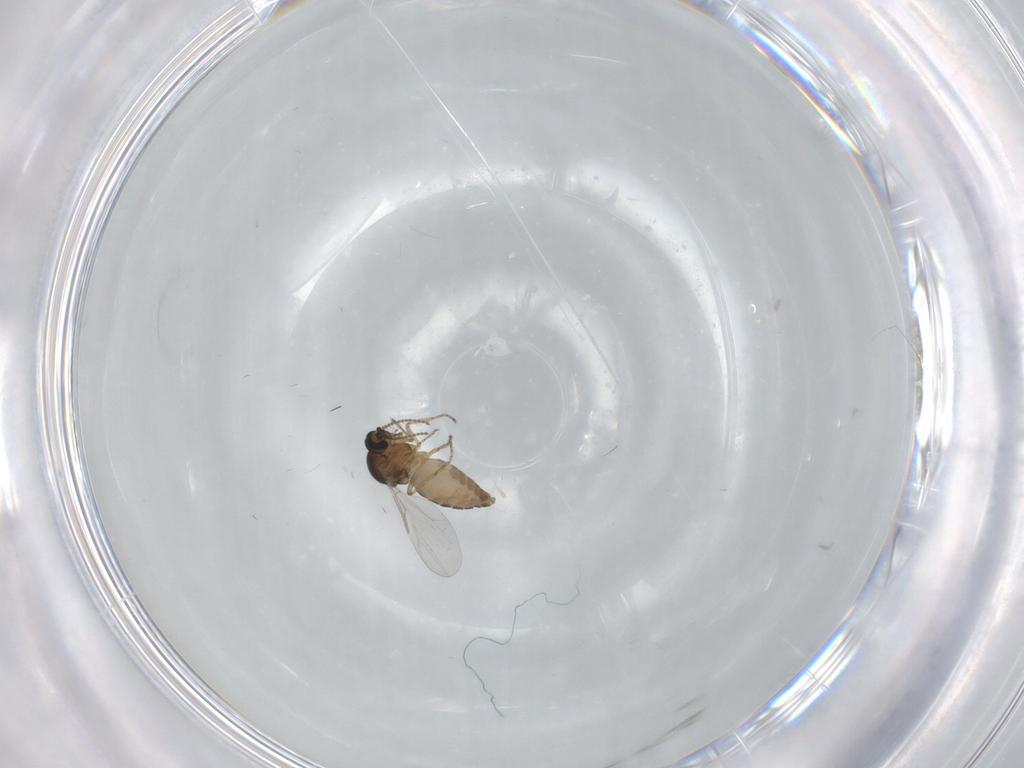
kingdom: Animalia
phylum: Arthropoda
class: Insecta
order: Diptera
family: Ceratopogonidae
